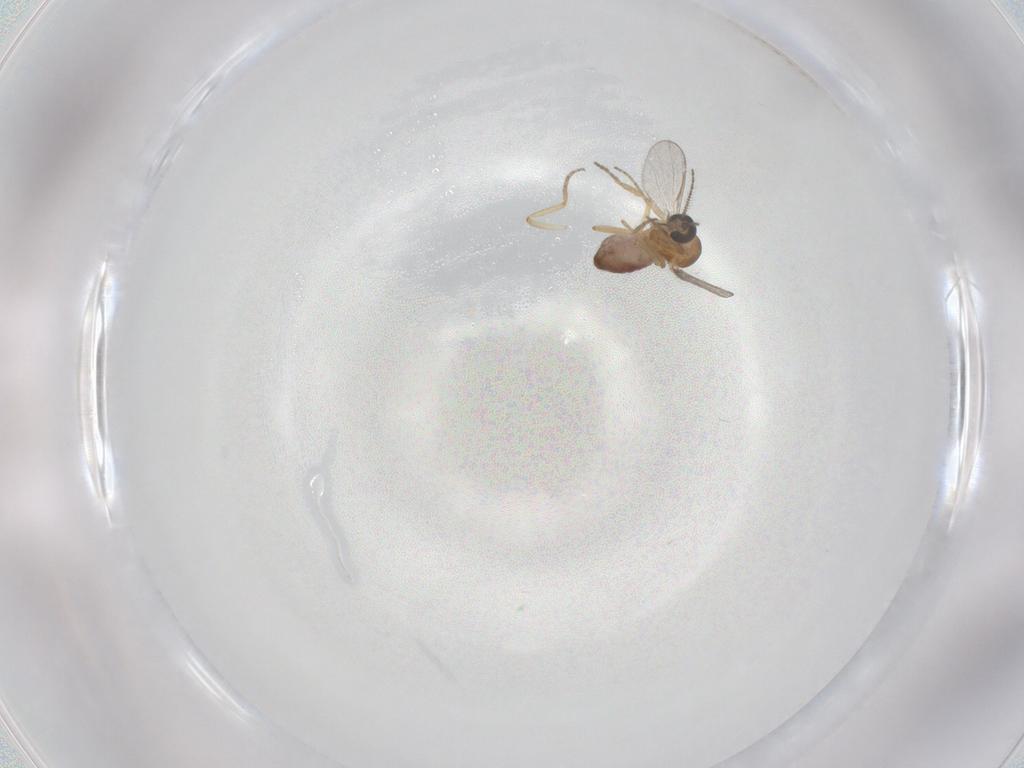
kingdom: Animalia
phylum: Arthropoda
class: Insecta
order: Diptera
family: Ceratopogonidae
